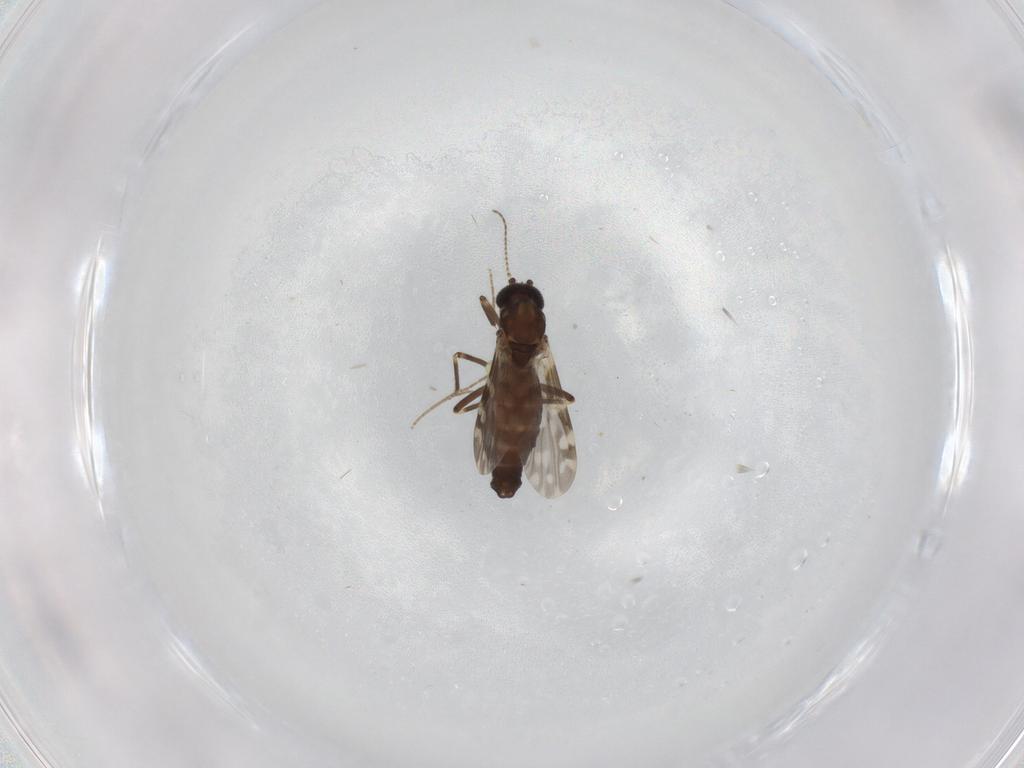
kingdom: Animalia
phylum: Arthropoda
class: Insecta
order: Diptera
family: Ceratopogonidae
